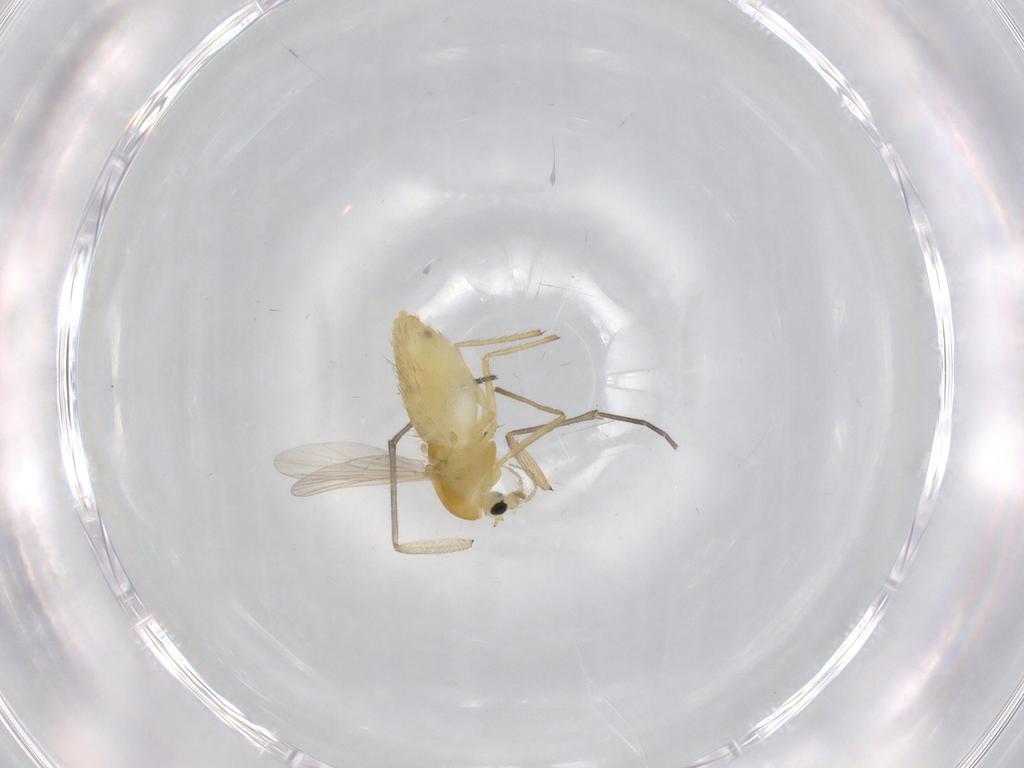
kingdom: Animalia
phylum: Arthropoda
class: Insecta
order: Diptera
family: Chironomidae
